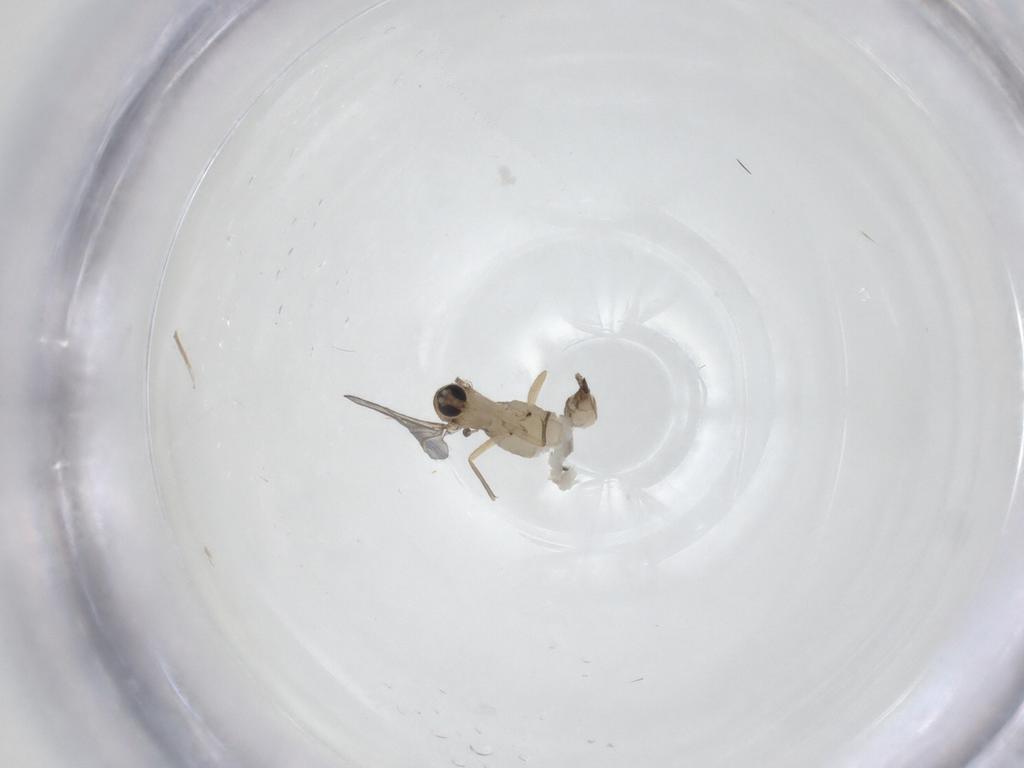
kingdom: Animalia
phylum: Arthropoda
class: Insecta
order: Diptera
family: Sciaridae
